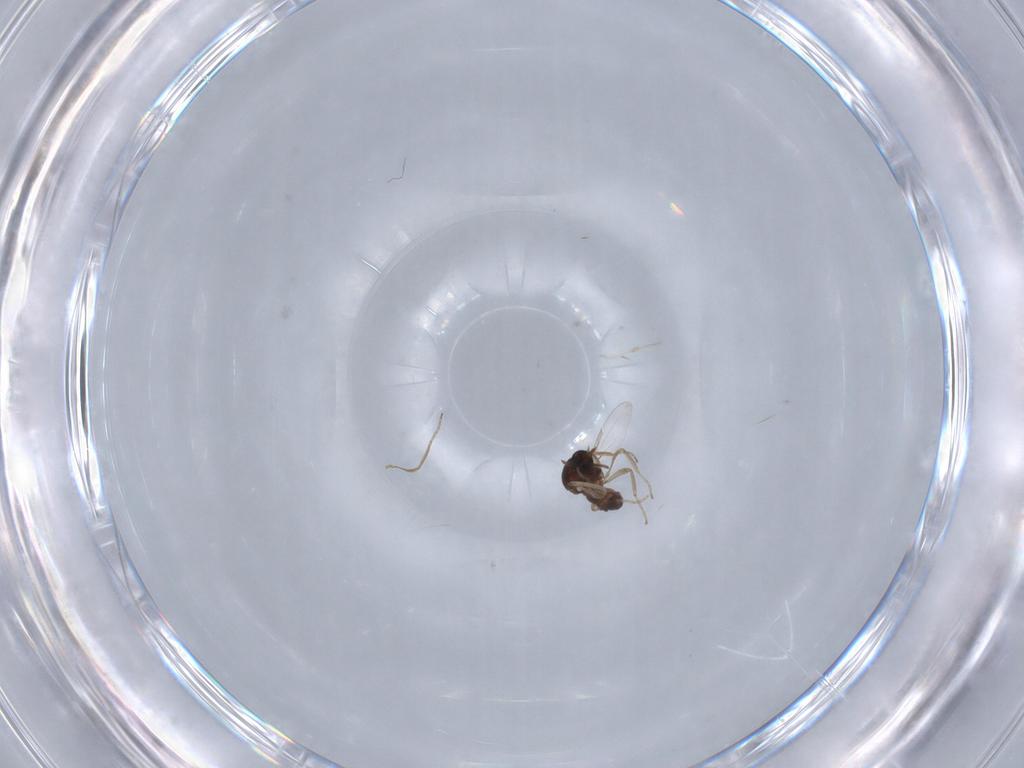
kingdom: Animalia
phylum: Arthropoda
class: Insecta
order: Diptera
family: Ceratopogonidae
